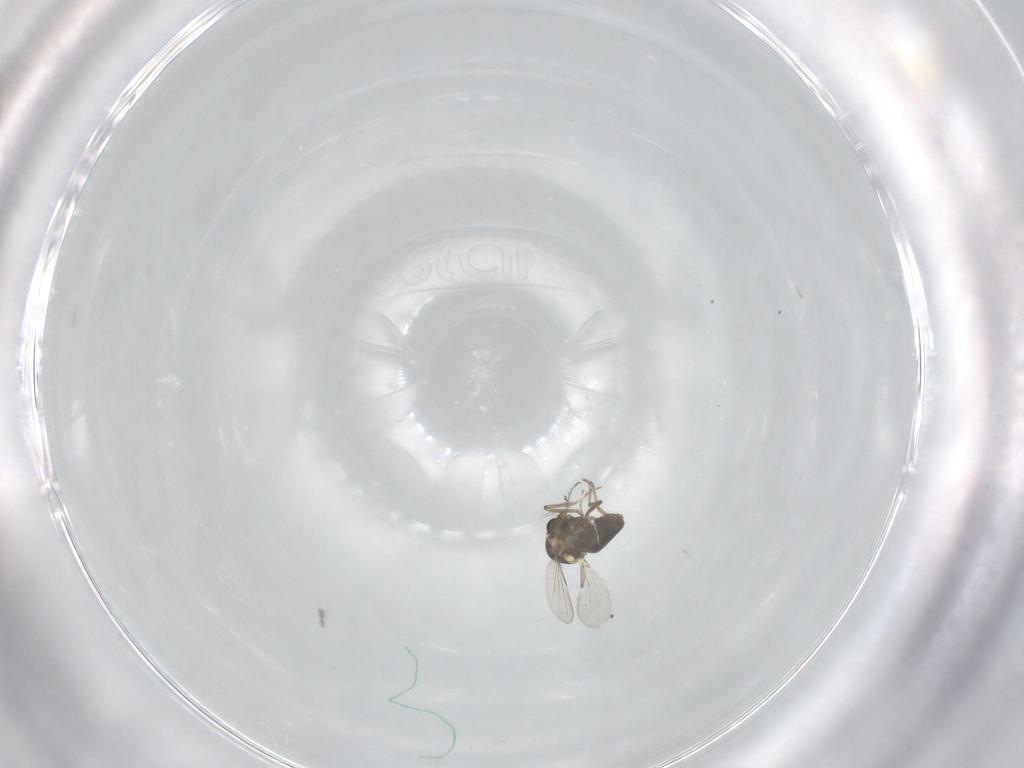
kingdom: Animalia
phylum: Arthropoda
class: Insecta
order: Diptera
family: Ceratopogonidae
